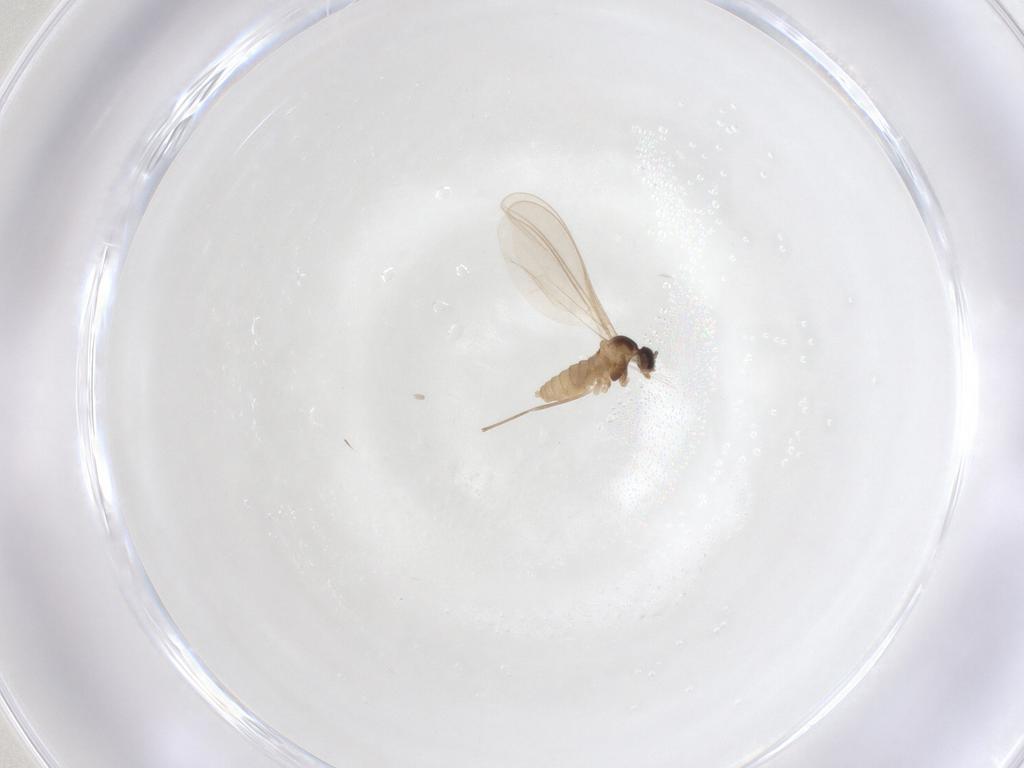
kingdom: Animalia
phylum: Arthropoda
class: Insecta
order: Diptera
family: Cecidomyiidae
